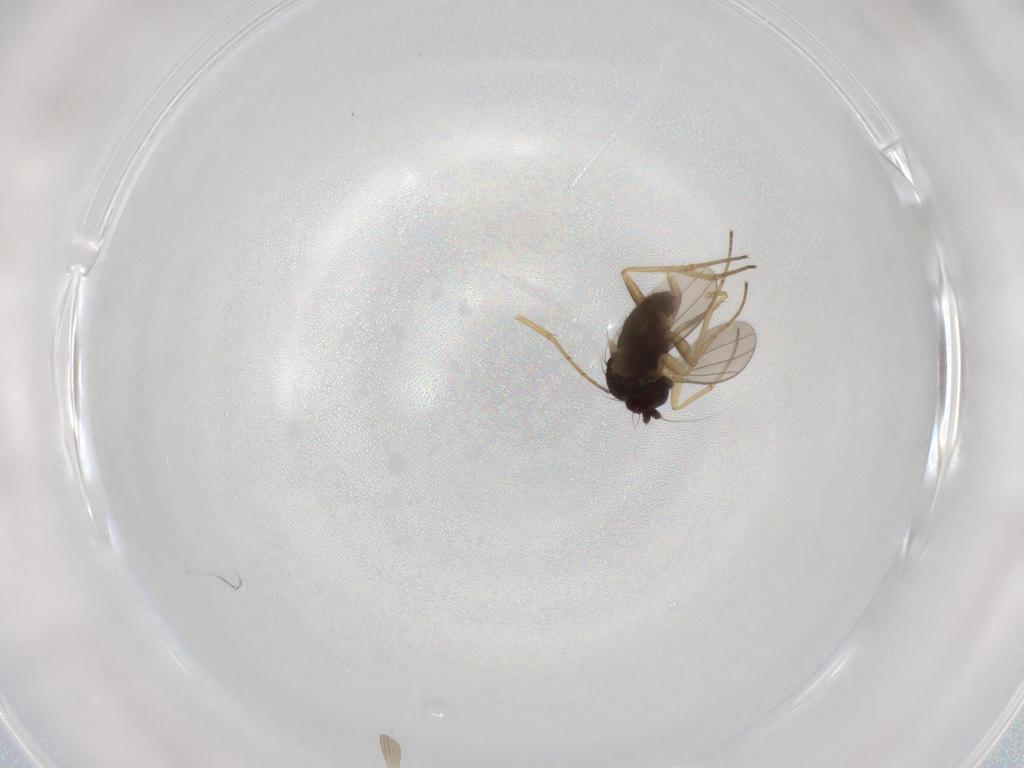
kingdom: Animalia
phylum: Arthropoda
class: Insecta
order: Diptera
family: Dolichopodidae
